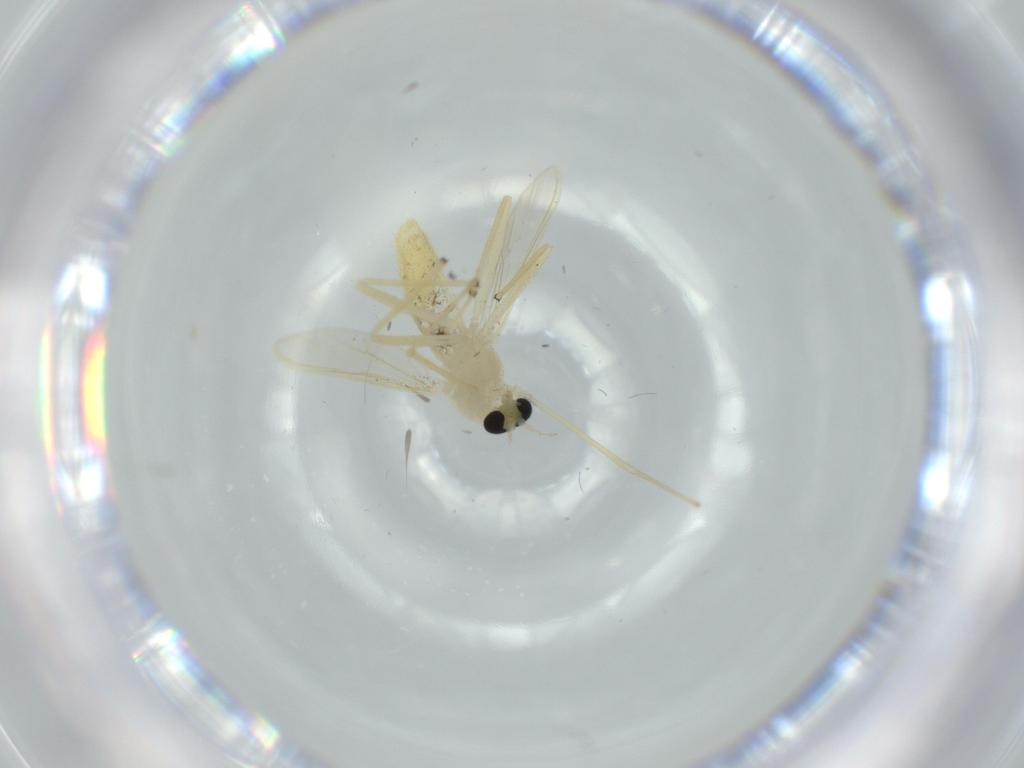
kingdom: Animalia
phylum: Arthropoda
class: Insecta
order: Diptera
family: Chironomidae
